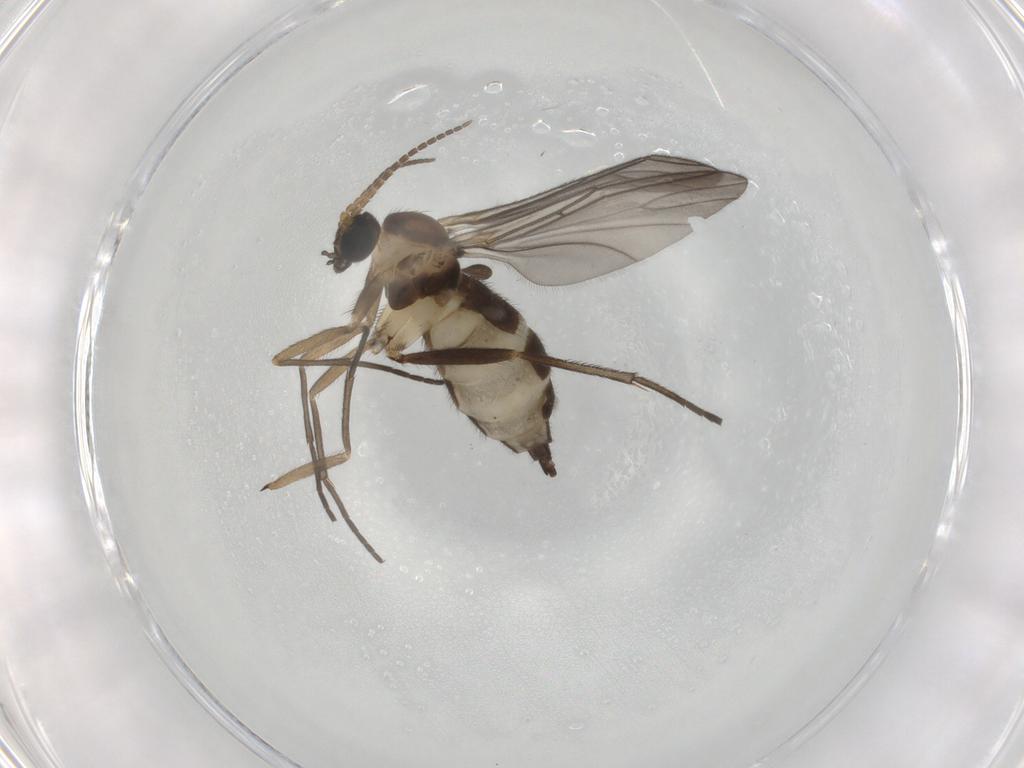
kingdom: Animalia
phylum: Arthropoda
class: Insecta
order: Diptera
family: Sciaridae
